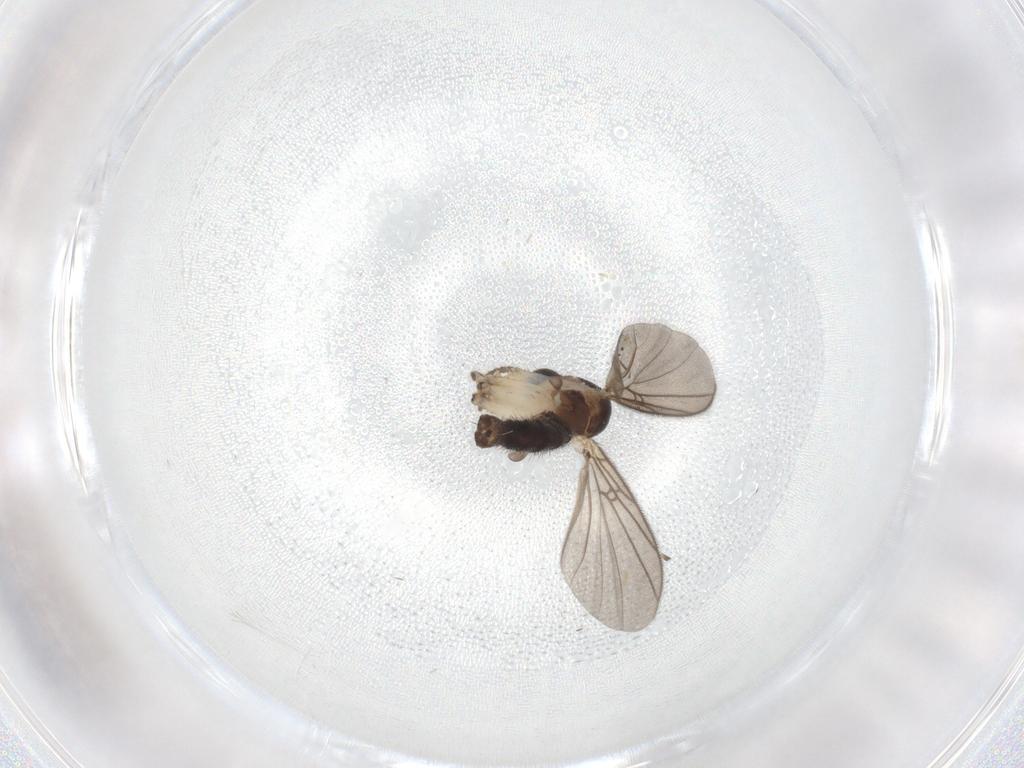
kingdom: Animalia
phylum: Arthropoda
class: Insecta
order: Diptera
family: Cecidomyiidae
